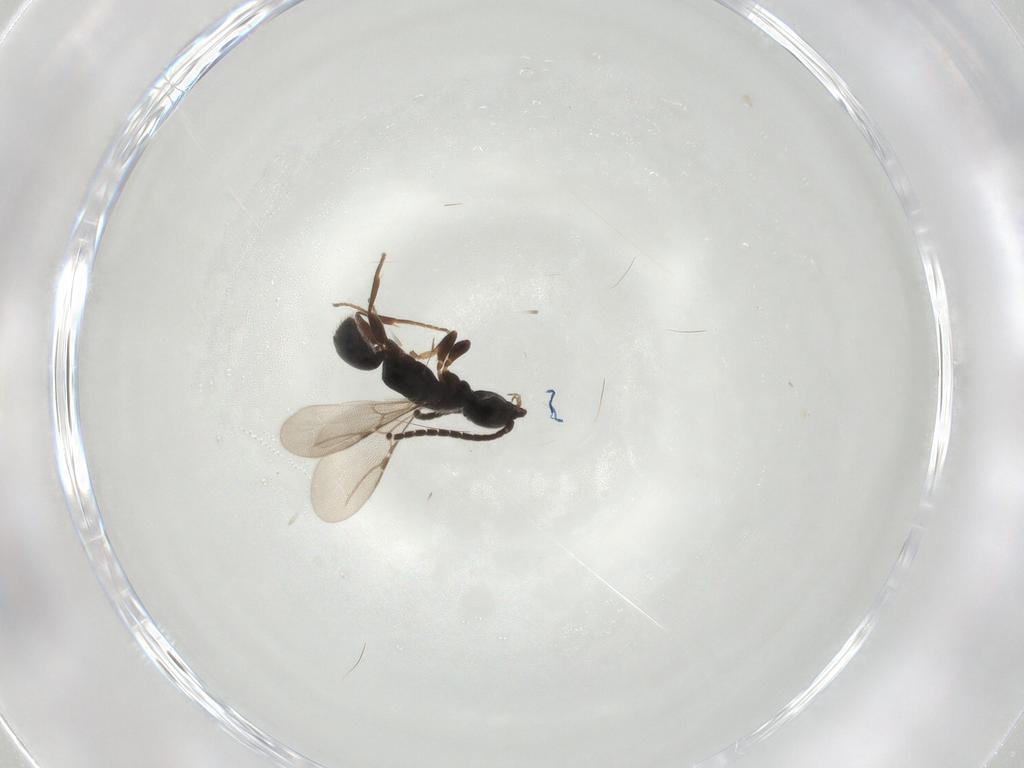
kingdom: Animalia
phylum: Arthropoda
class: Insecta
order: Hymenoptera
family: Bethylidae
